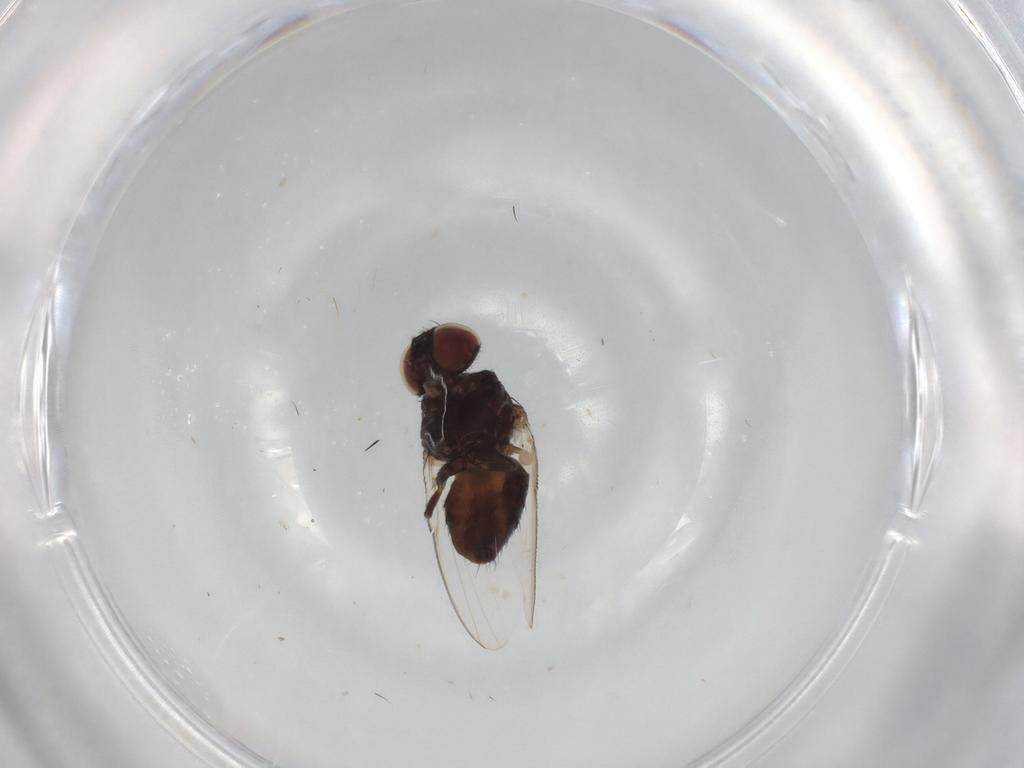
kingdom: Animalia
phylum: Arthropoda
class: Insecta
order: Diptera
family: Milichiidae
